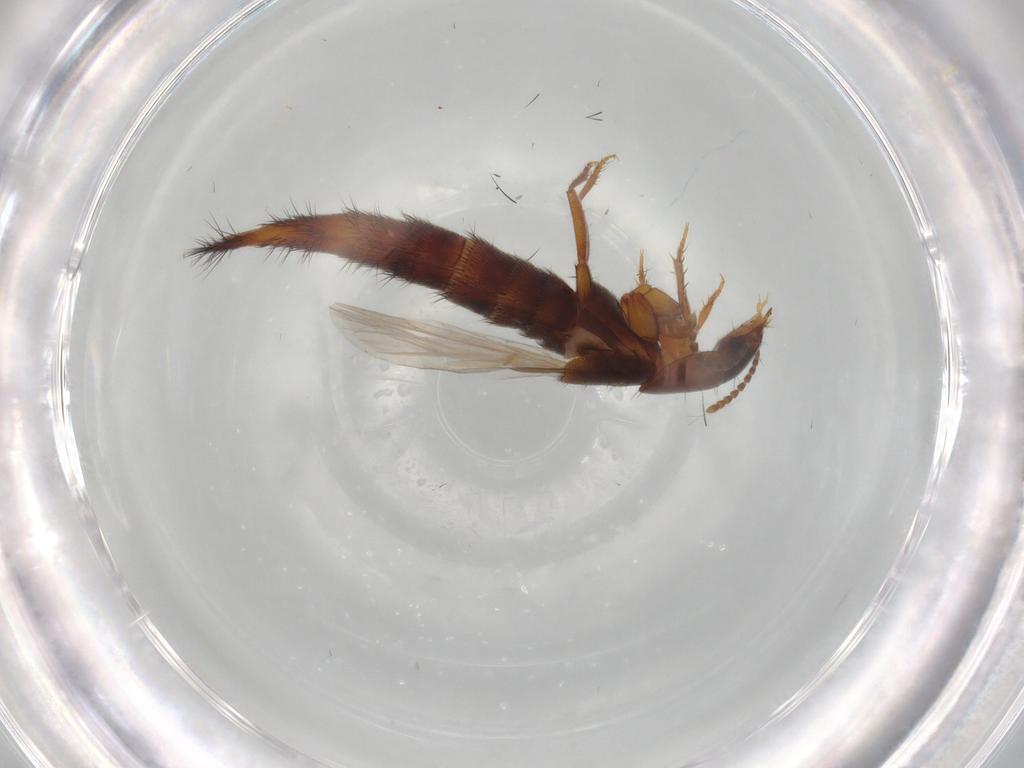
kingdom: Animalia
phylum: Arthropoda
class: Insecta
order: Coleoptera
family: Staphylinidae
